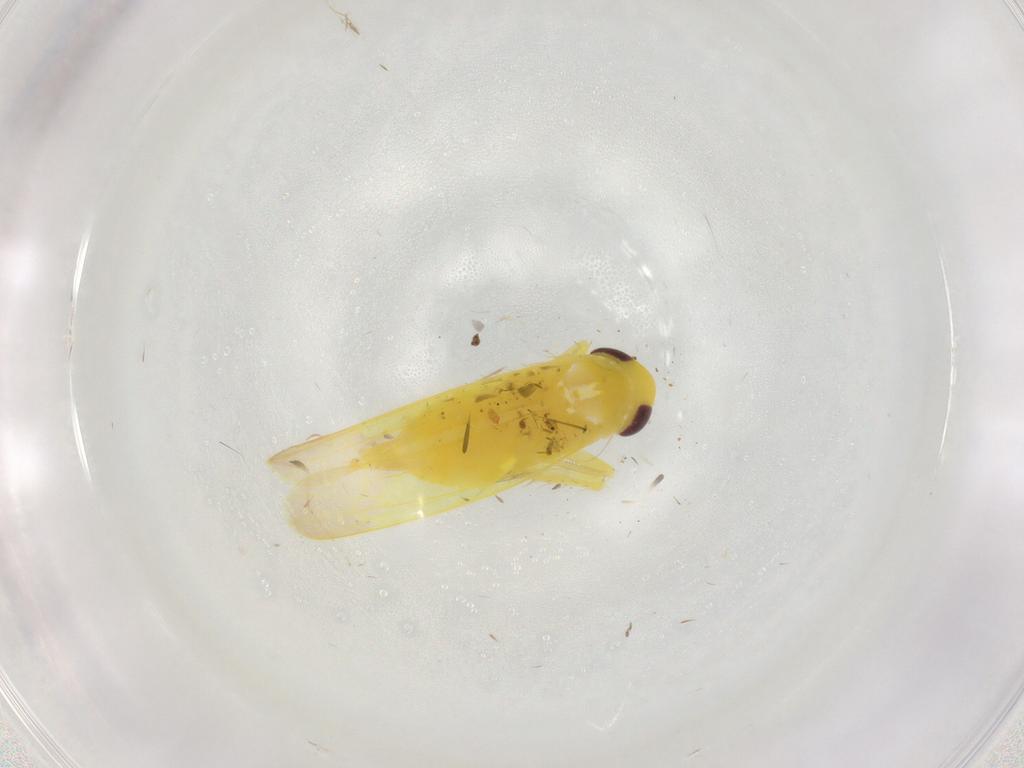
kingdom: Animalia
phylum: Arthropoda
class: Insecta
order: Hemiptera
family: Cicadellidae
